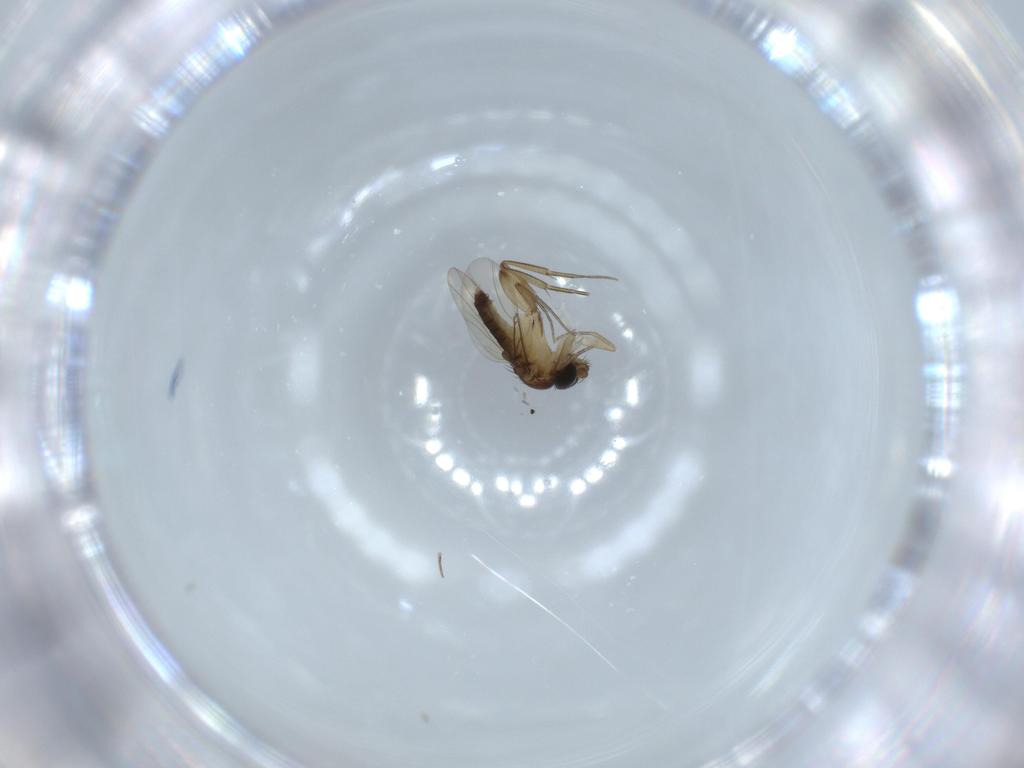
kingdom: Animalia
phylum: Arthropoda
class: Insecta
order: Diptera
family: Phoridae
